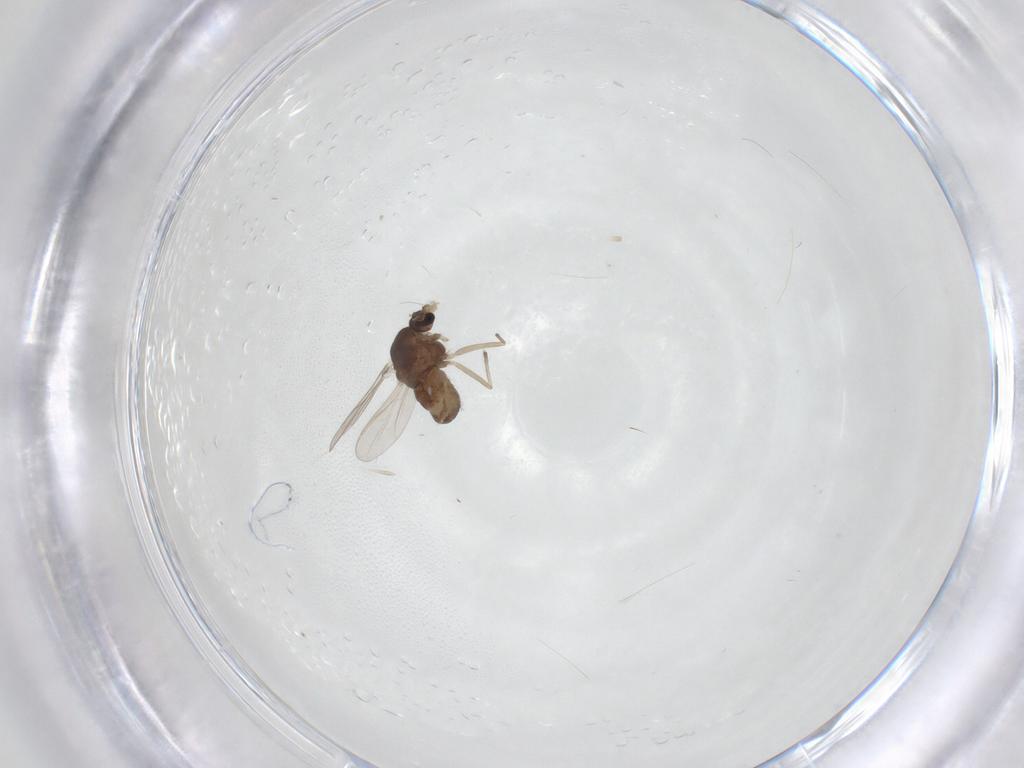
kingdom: Animalia
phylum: Arthropoda
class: Insecta
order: Diptera
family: Chironomidae
